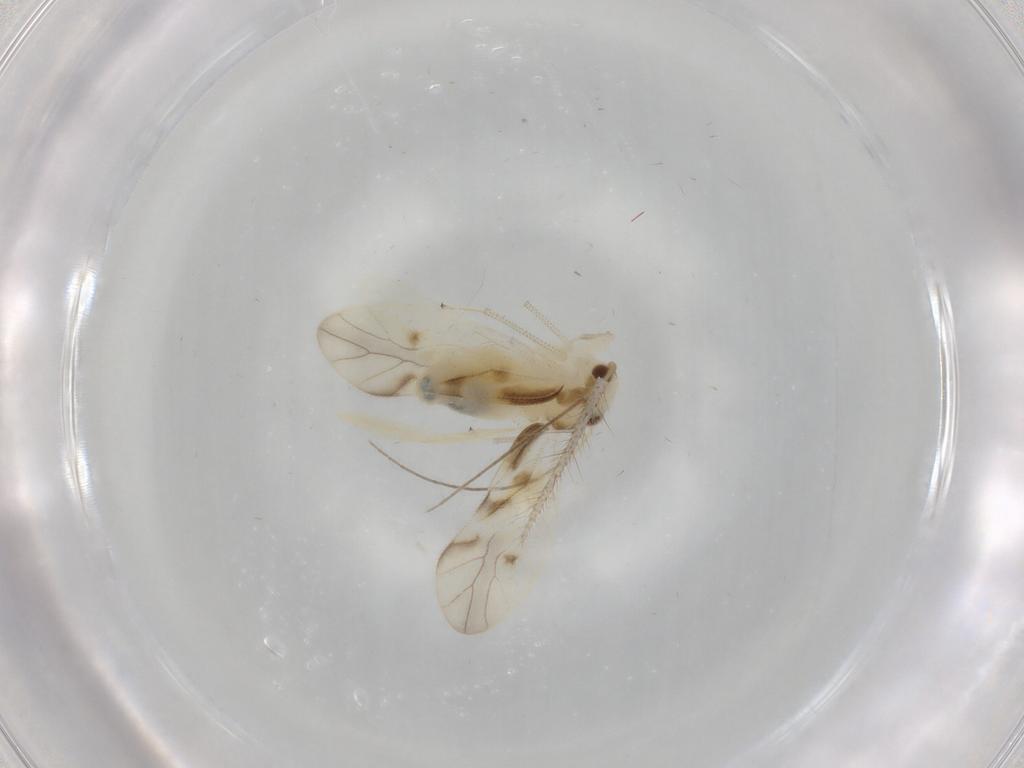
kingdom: Animalia
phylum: Arthropoda
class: Insecta
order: Psocodea
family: Caeciliusidae
